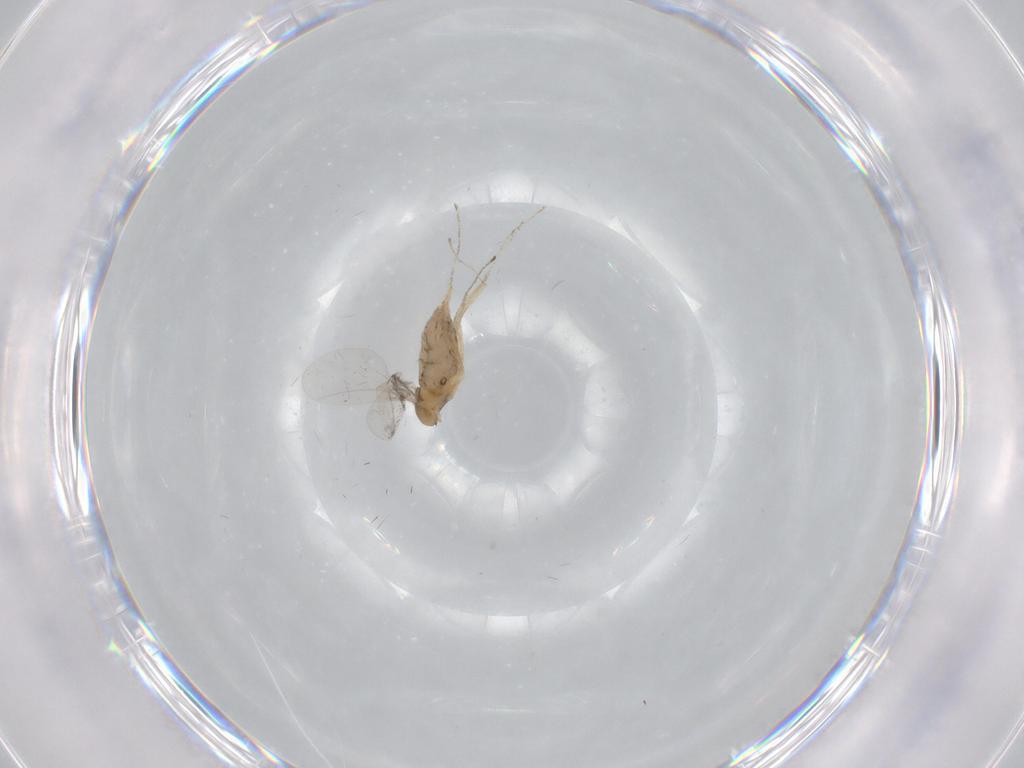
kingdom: Animalia
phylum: Arthropoda
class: Insecta
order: Diptera
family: Cecidomyiidae
